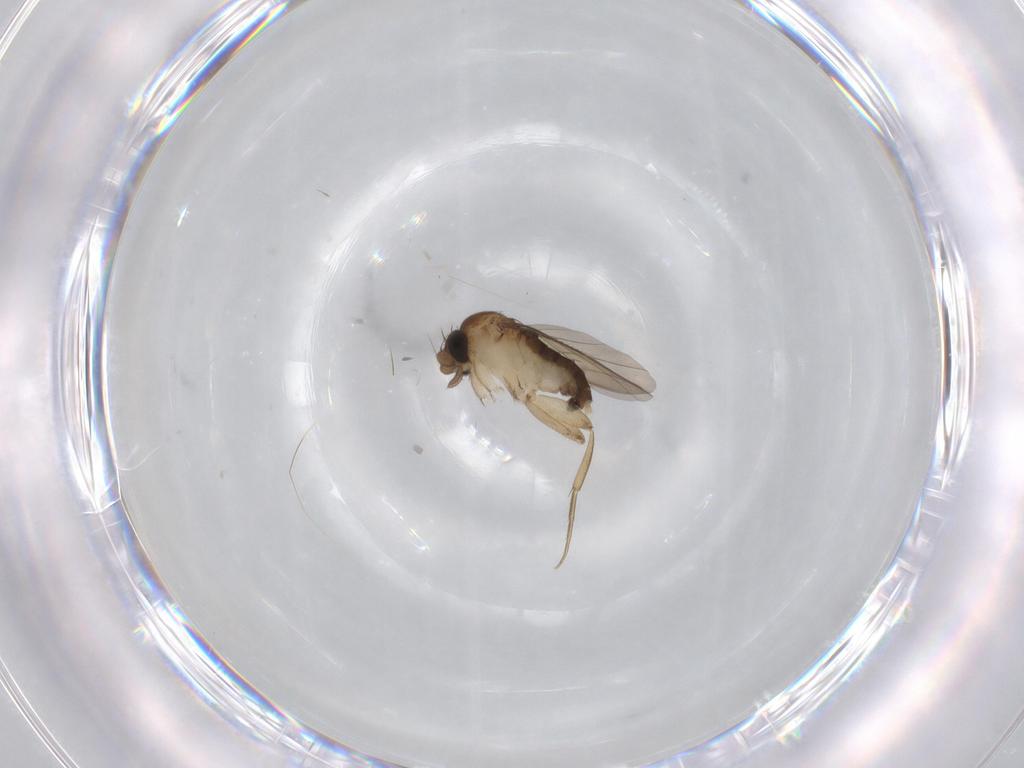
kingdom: Animalia
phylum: Arthropoda
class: Insecta
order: Diptera
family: Phoridae
